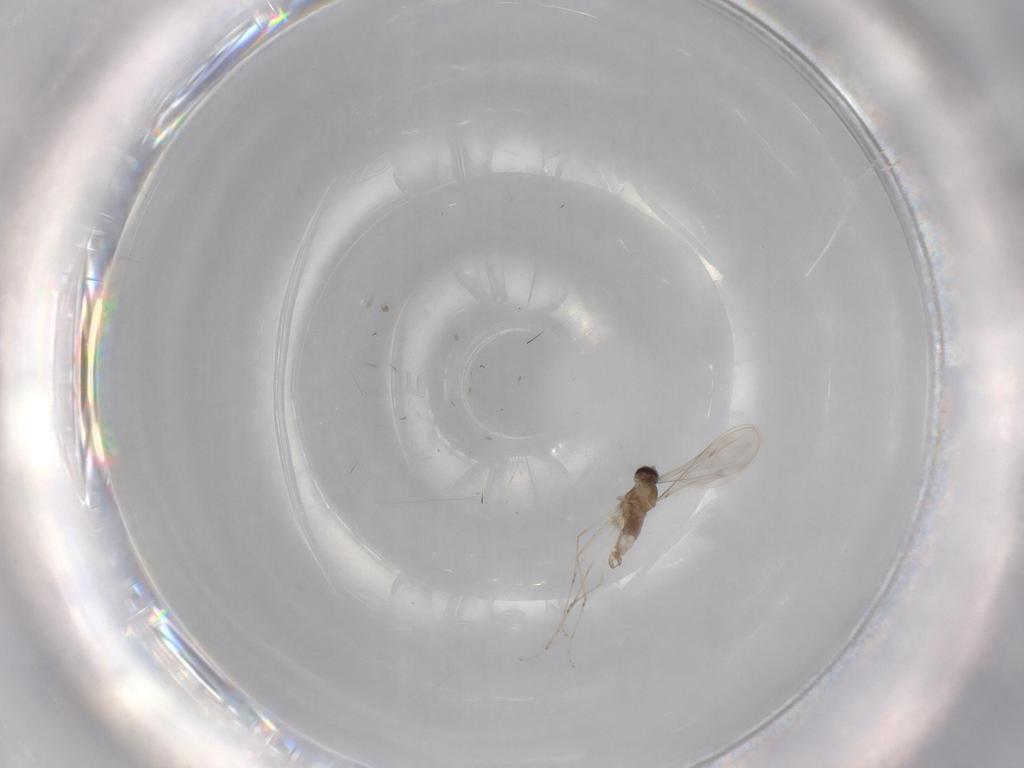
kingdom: Animalia
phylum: Arthropoda
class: Insecta
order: Diptera
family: Cecidomyiidae
